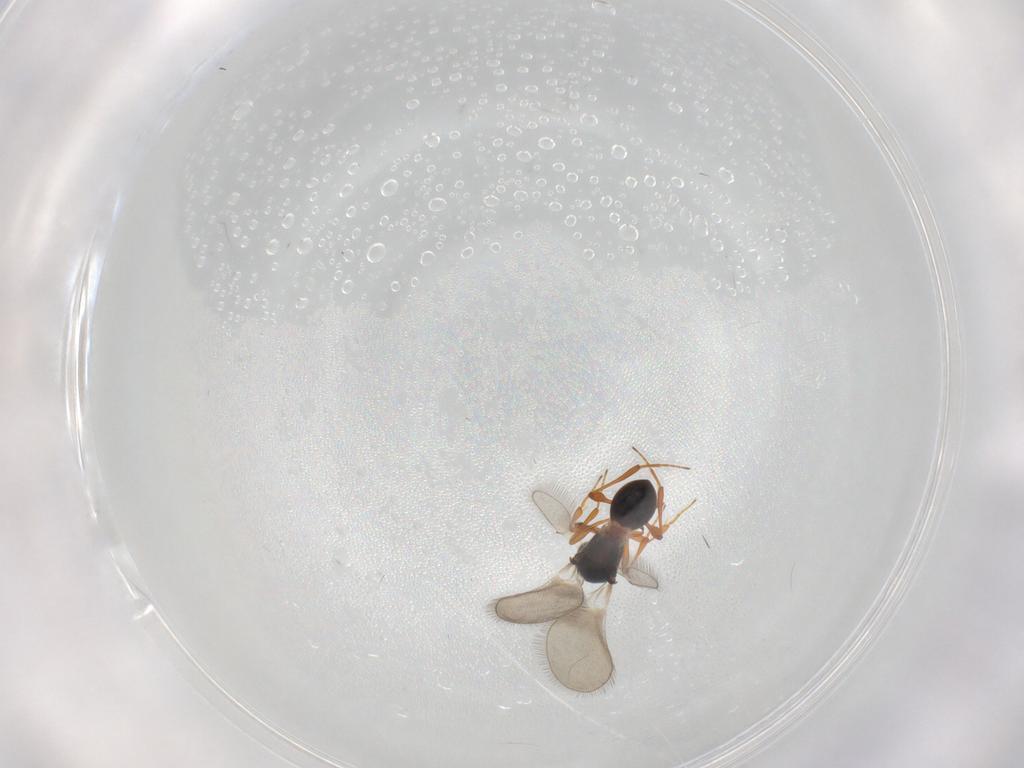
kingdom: Animalia
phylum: Arthropoda
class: Insecta
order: Hymenoptera
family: Platygastridae
